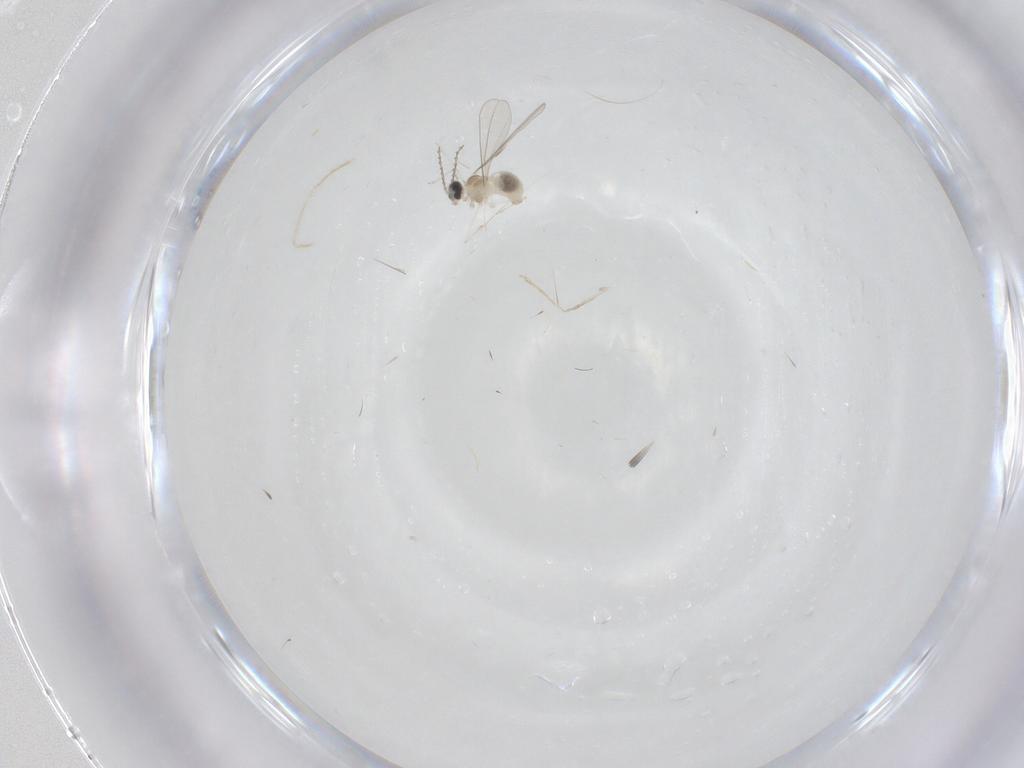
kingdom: Animalia
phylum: Arthropoda
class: Insecta
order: Diptera
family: Cecidomyiidae
